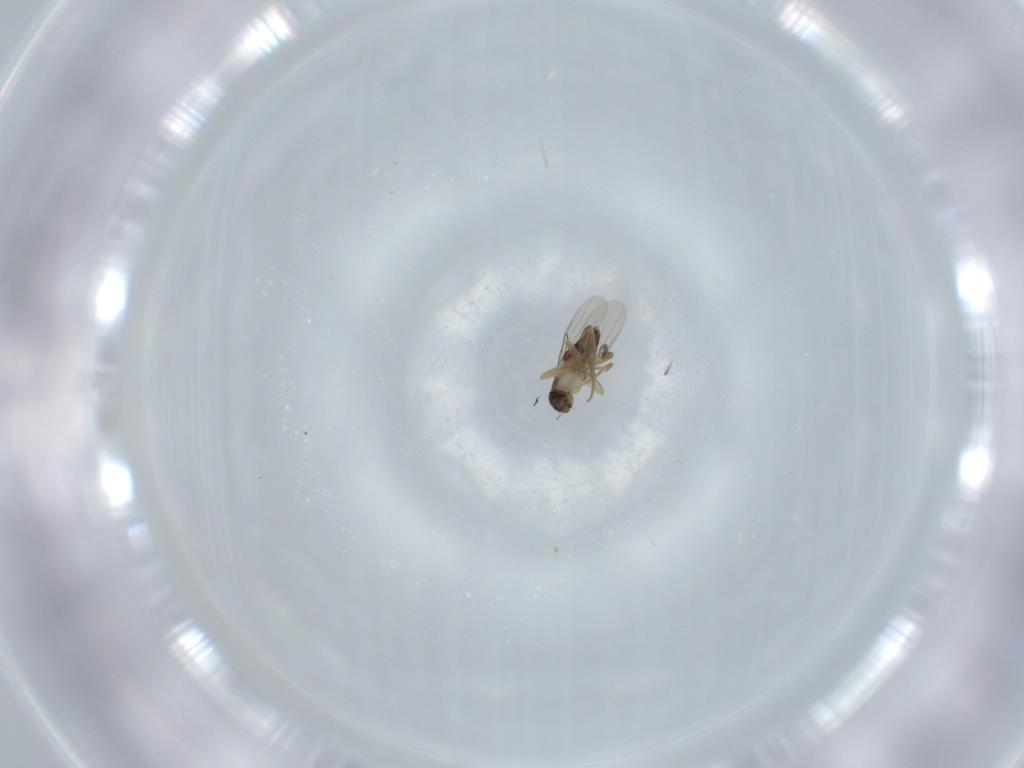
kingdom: Animalia
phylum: Arthropoda
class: Insecta
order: Diptera
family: Phoridae
